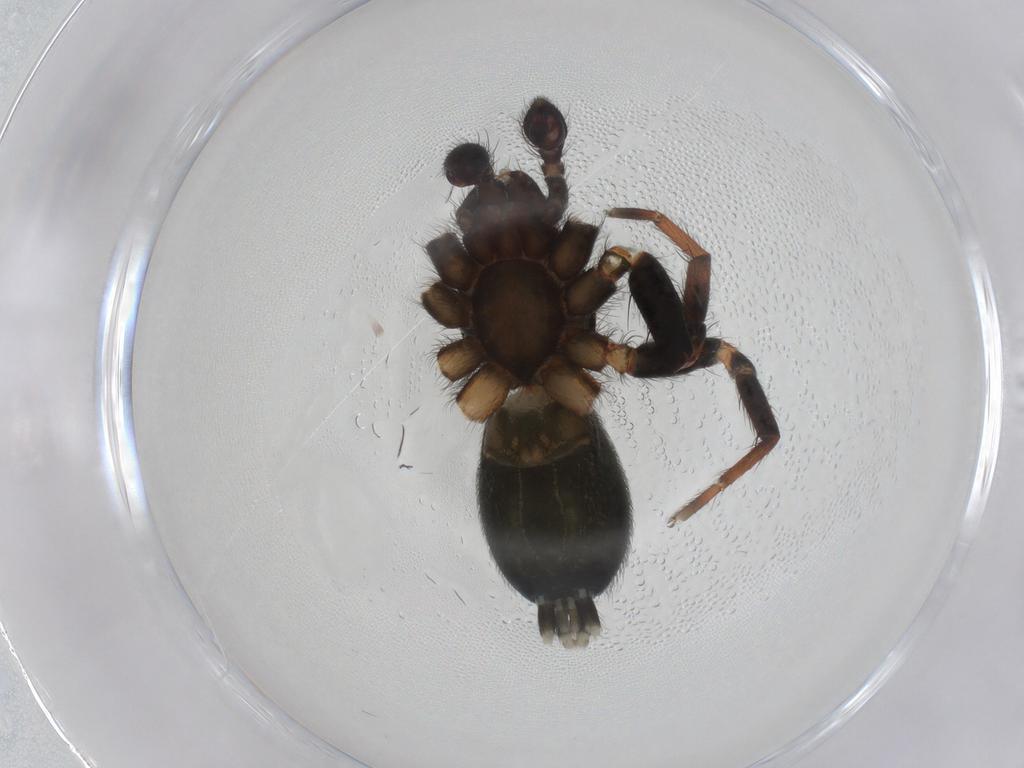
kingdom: Animalia
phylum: Arthropoda
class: Arachnida
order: Araneae
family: Gnaphosidae
